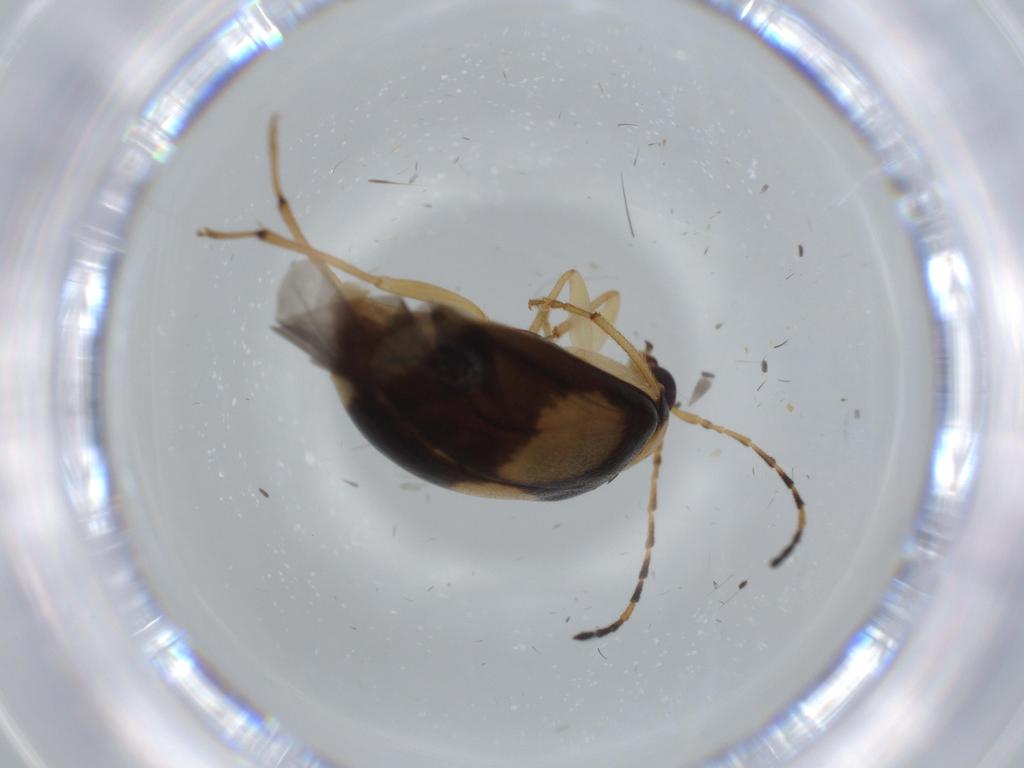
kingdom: Animalia
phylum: Arthropoda
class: Insecta
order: Coleoptera
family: Chrysomelidae
